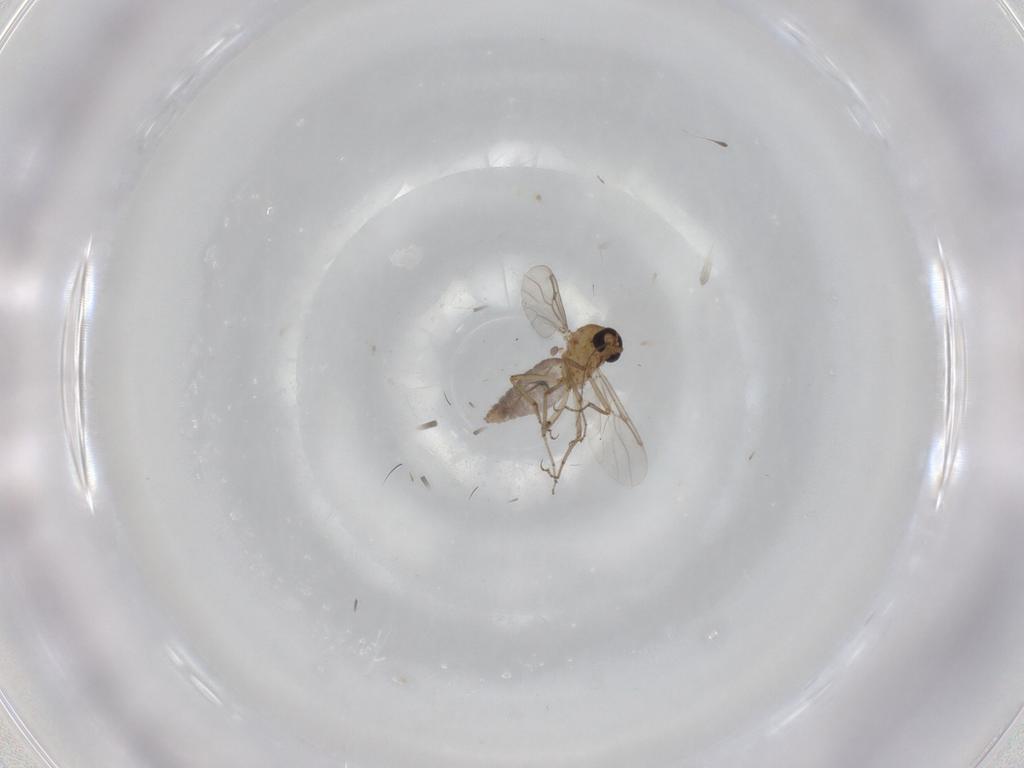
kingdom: Animalia
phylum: Arthropoda
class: Insecta
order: Diptera
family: Ceratopogonidae
